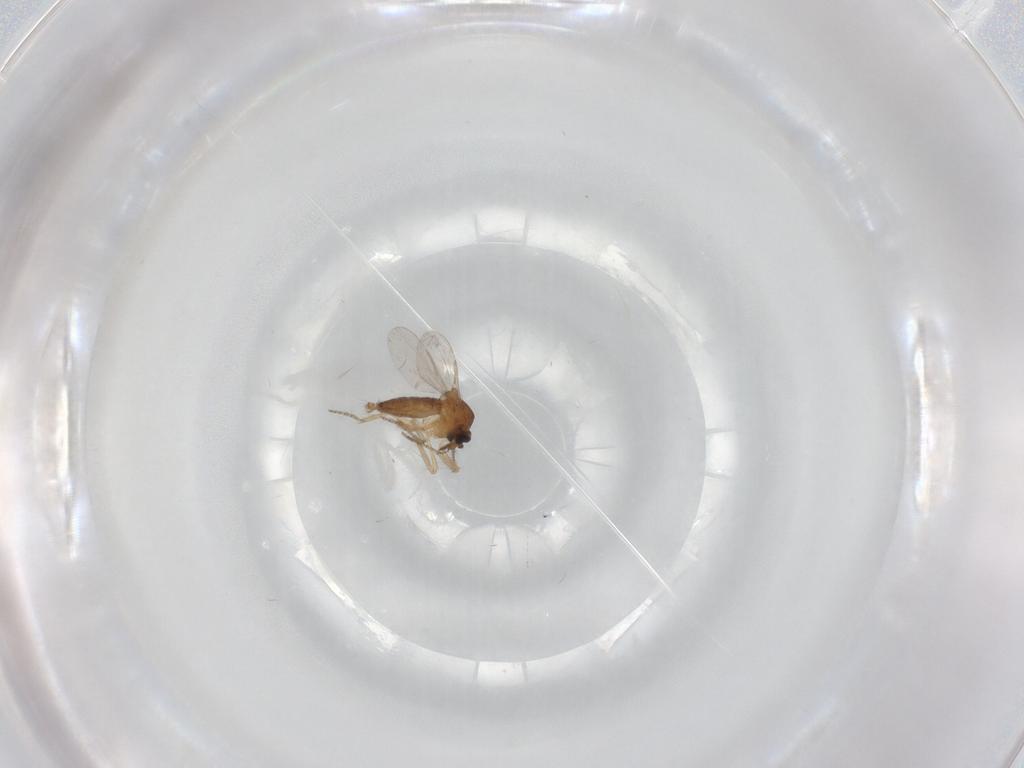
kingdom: Animalia
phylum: Arthropoda
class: Insecta
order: Diptera
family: Ceratopogonidae
